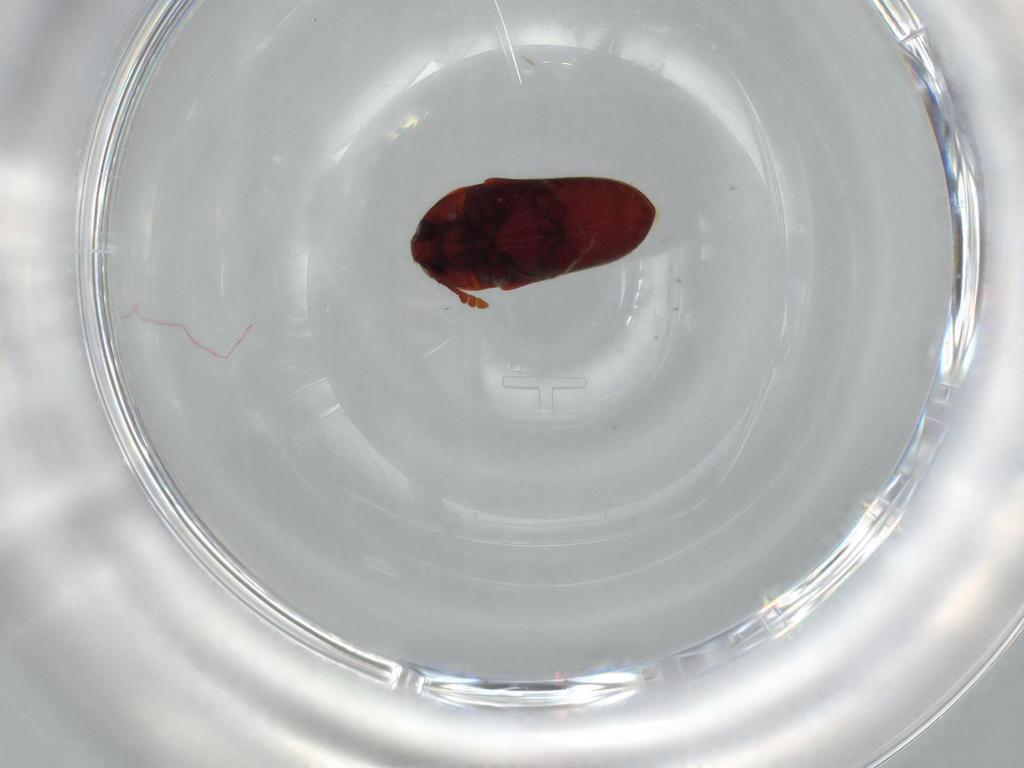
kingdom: Animalia
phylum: Arthropoda
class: Insecta
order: Coleoptera
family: Throscidae
